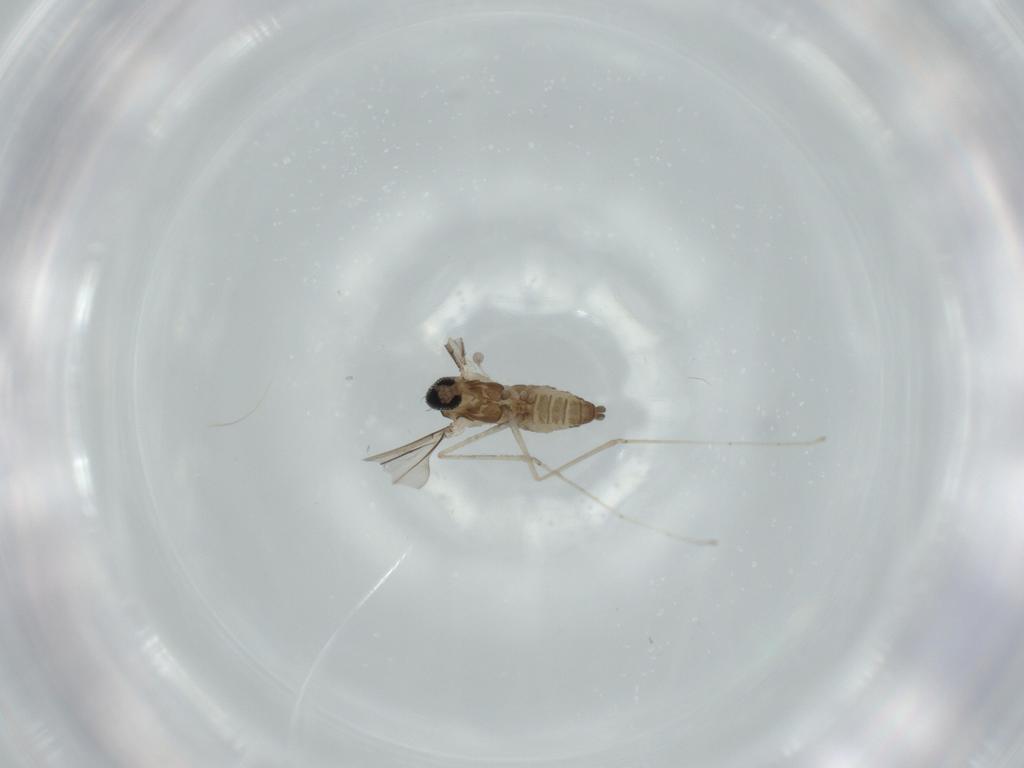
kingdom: Animalia
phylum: Arthropoda
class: Insecta
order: Diptera
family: Cecidomyiidae
